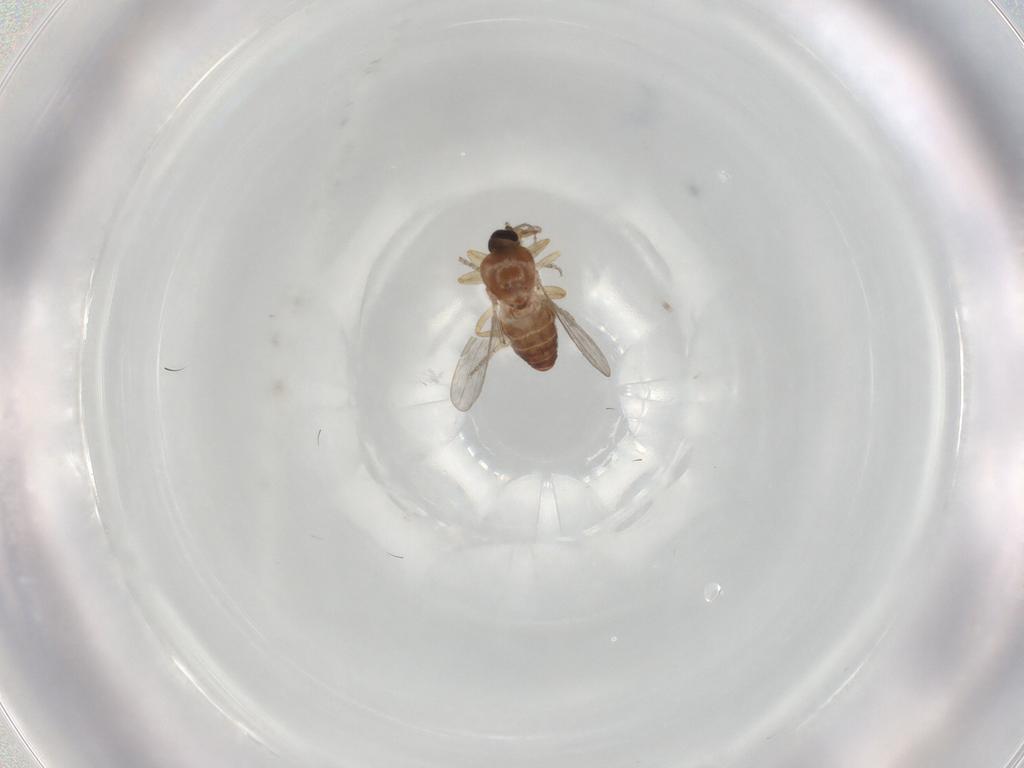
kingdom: Animalia
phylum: Arthropoda
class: Insecta
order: Diptera
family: Ceratopogonidae
